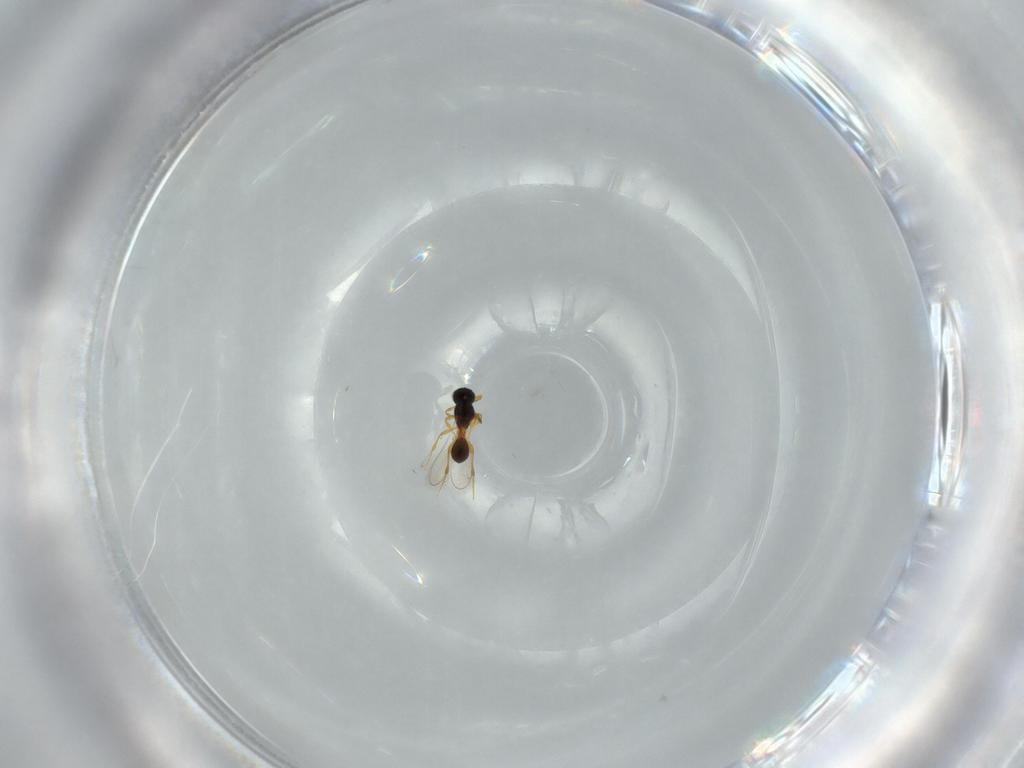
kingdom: Animalia
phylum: Arthropoda
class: Insecta
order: Hymenoptera
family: Platygastridae
